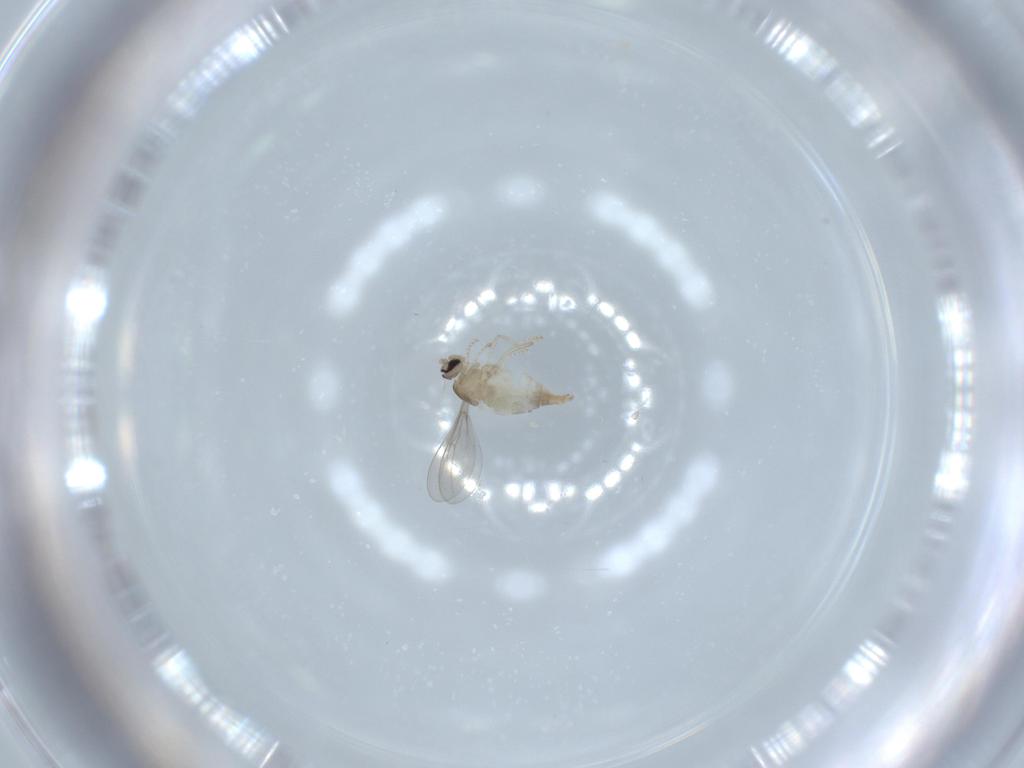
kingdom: Animalia
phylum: Arthropoda
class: Insecta
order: Diptera
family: Cecidomyiidae
